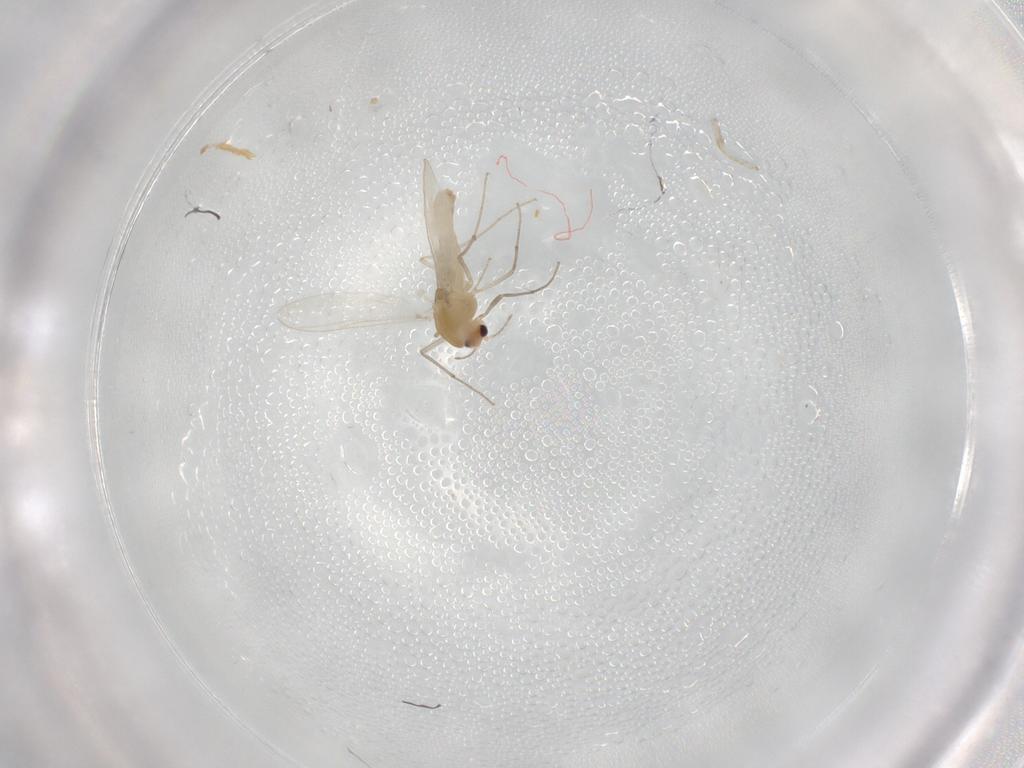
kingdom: Animalia
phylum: Arthropoda
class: Insecta
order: Diptera
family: Chironomidae
